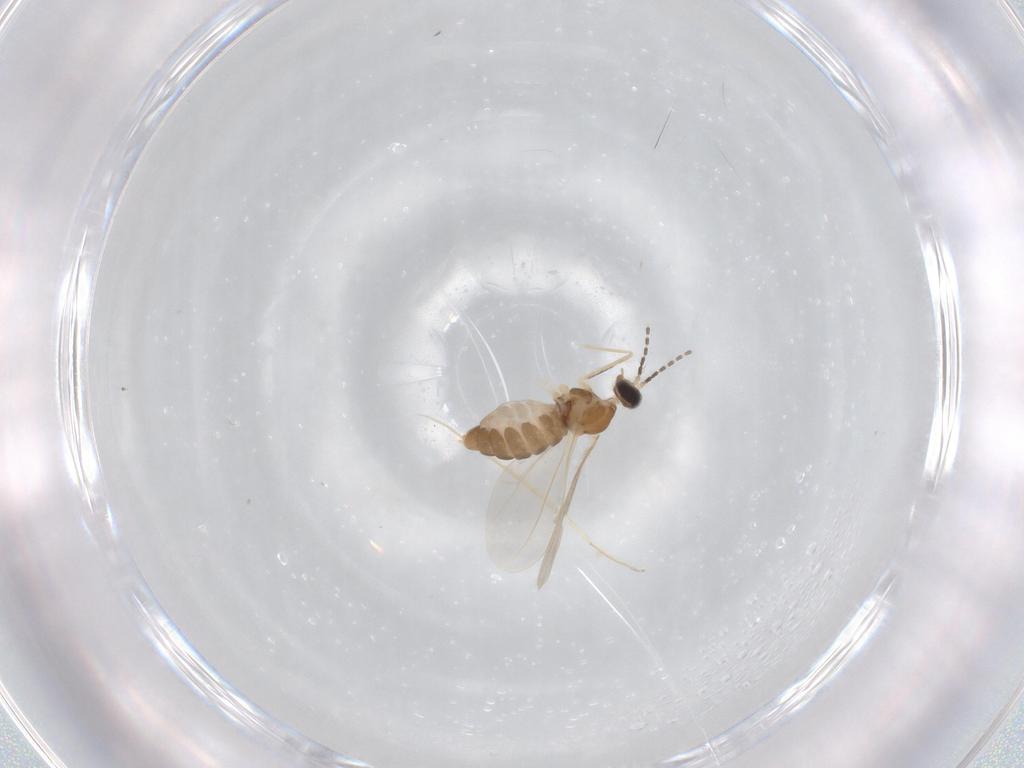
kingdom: Animalia
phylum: Arthropoda
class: Insecta
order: Diptera
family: Cecidomyiidae
